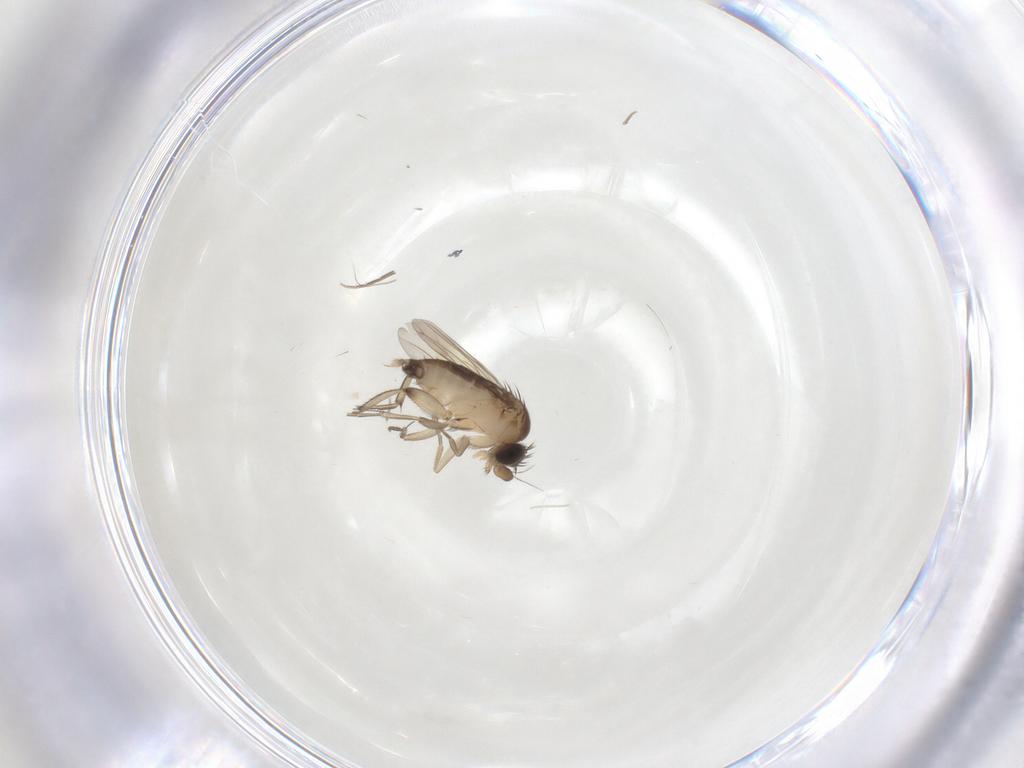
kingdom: Animalia
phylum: Arthropoda
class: Insecta
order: Diptera
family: Phoridae
